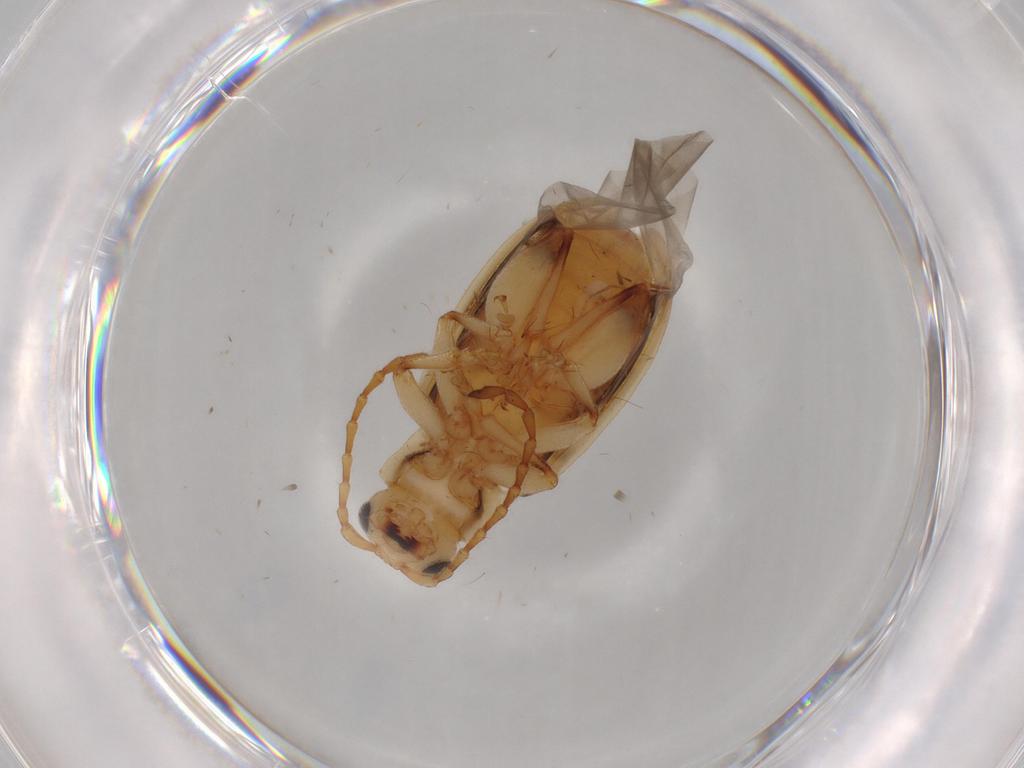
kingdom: Animalia
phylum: Arthropoda
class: Insecta
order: Coleoptera
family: Chrysomelidae
